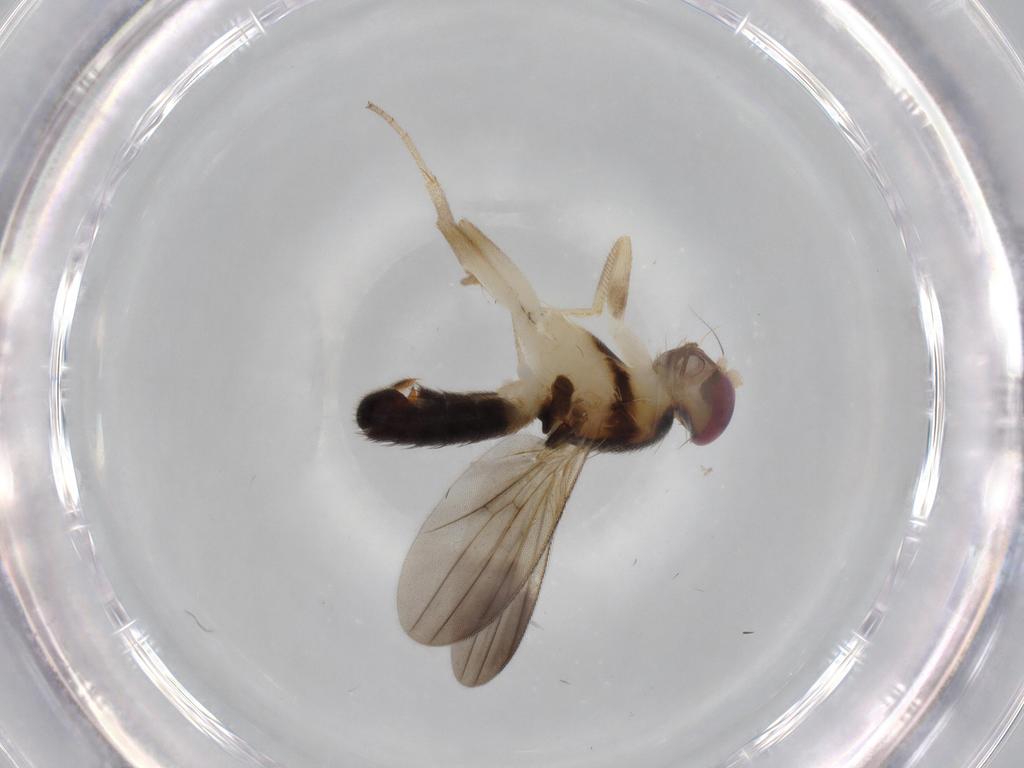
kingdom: Animalia
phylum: Arthropoda
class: Insecta
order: Diptera
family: Clusiidae
